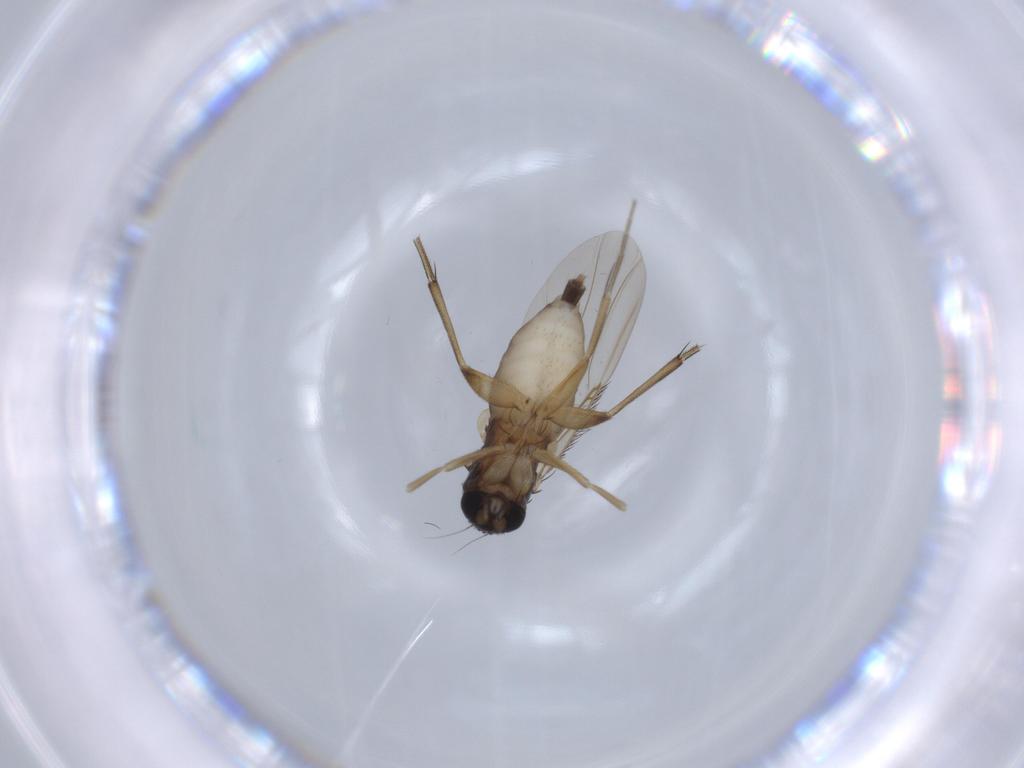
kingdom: Animalia
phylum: Arthropoda
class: Insecta
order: Diptera
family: Phoridae
